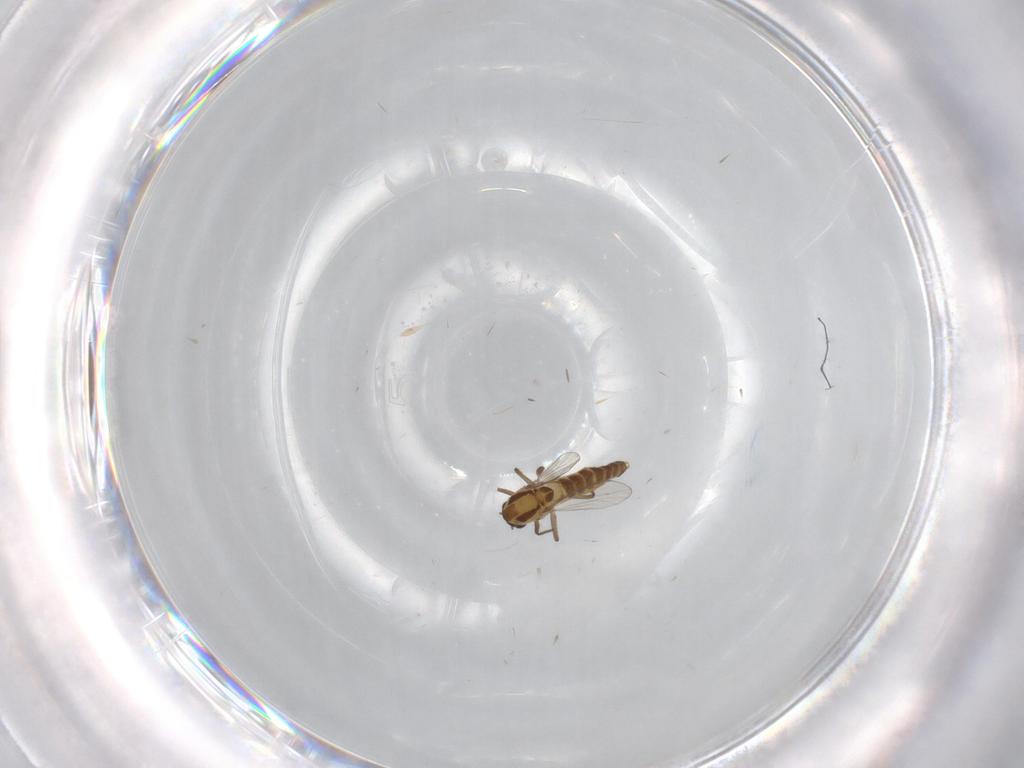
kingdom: Animalia
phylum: Arthropoda
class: Insecta
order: Diptera
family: Chironomidae
